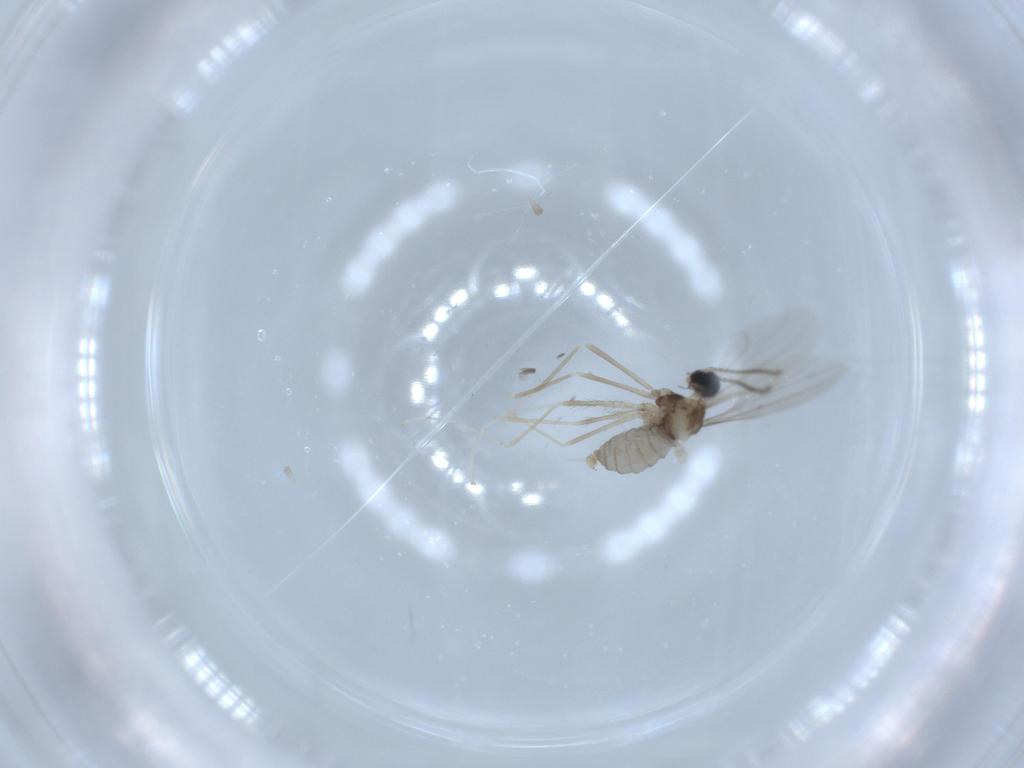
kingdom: Animalia
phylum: Arthropoda
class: Insecta
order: Diptera
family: Cecidomyiidae
